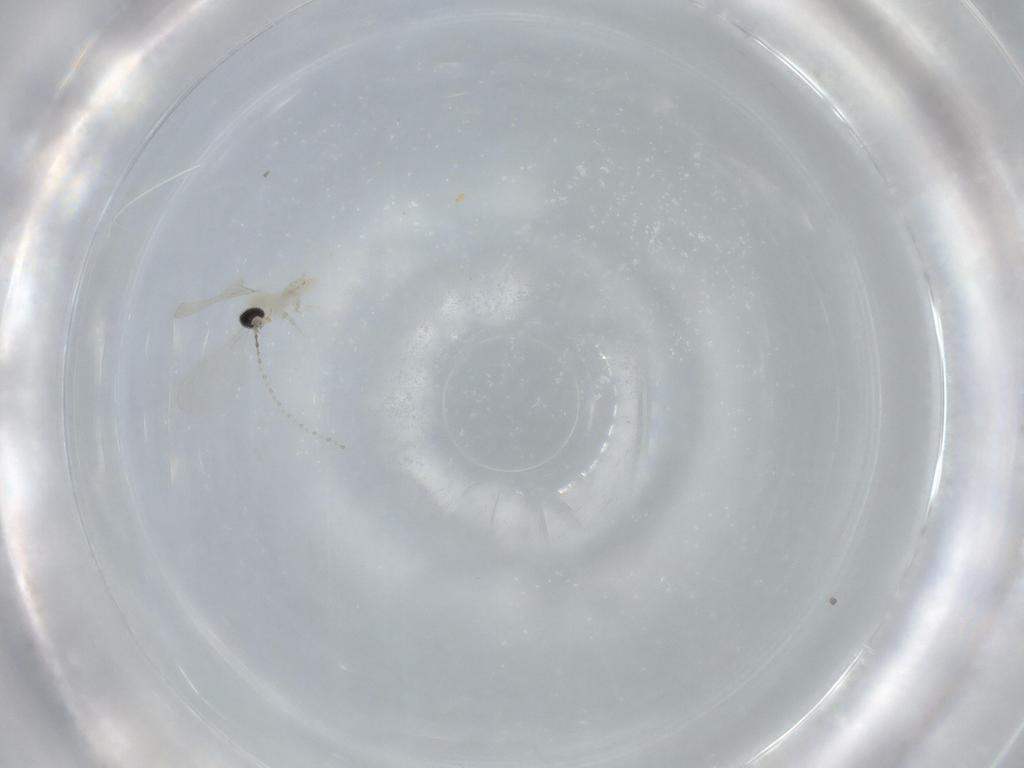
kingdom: Animalia
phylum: Arthropoda
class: Insecta
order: Diptera
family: Cecidomyiidae
